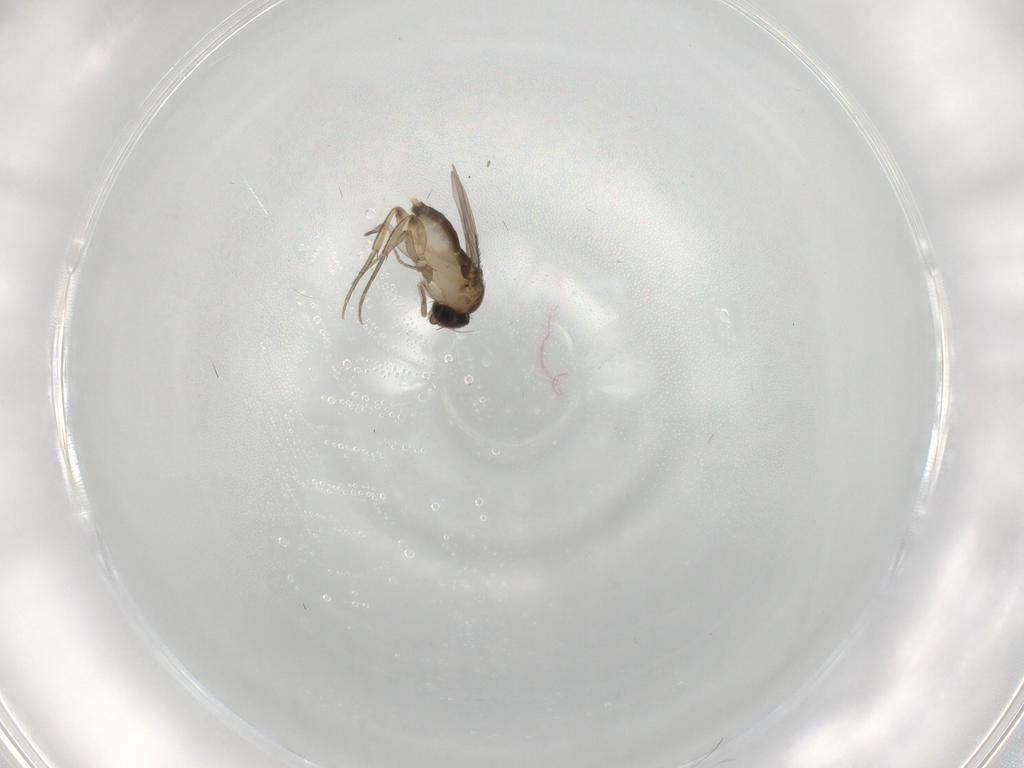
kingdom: Animalia
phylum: Arthropoda
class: Insecta
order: Diptera
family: Phoridae
